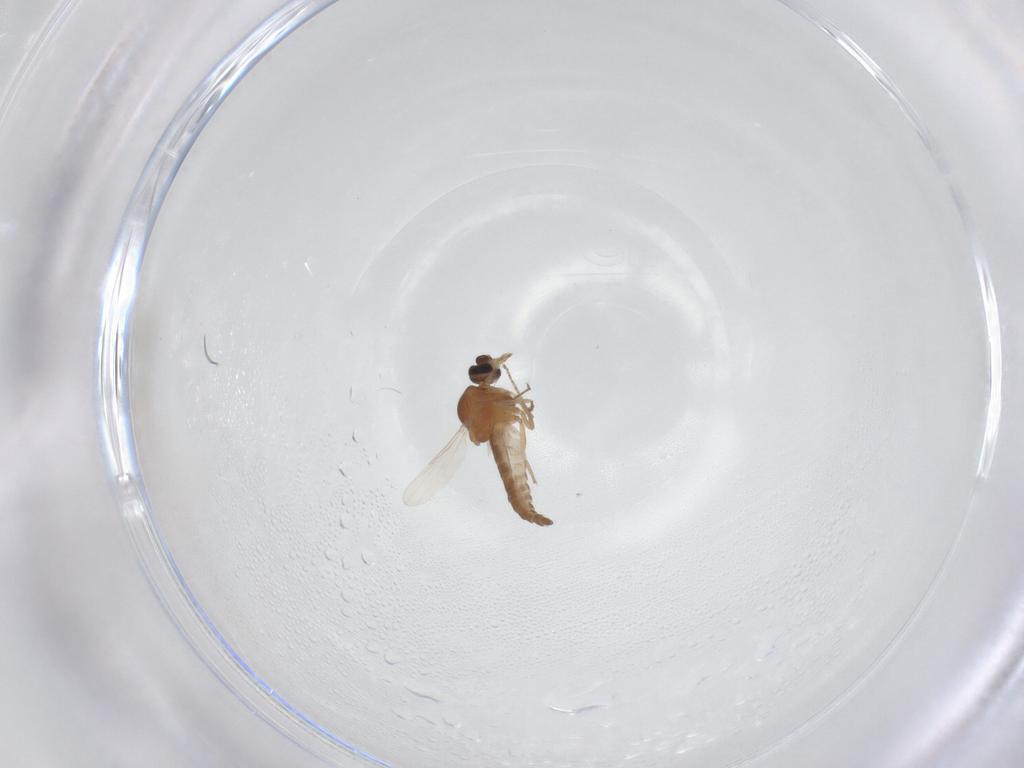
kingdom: Animalia
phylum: Arthropoda
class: Insecta
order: Diptera
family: Ceratopogonidae
